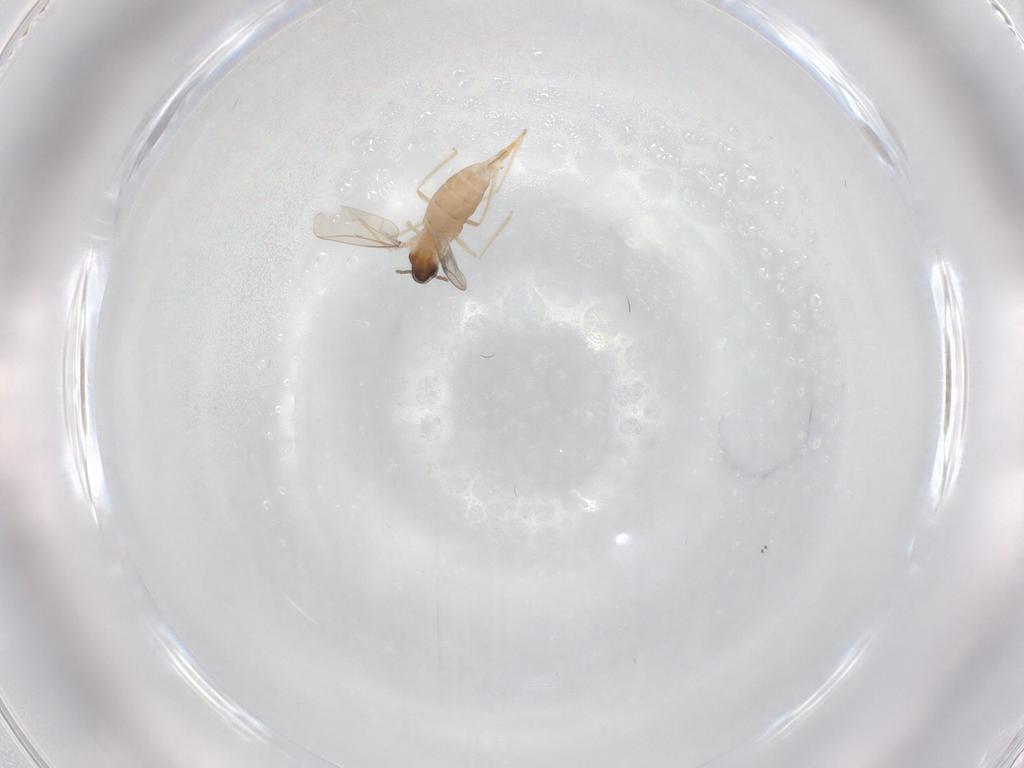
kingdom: Animalia
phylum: Arthropoda
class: Insecta
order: Diptera
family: Cecidomyiidae
